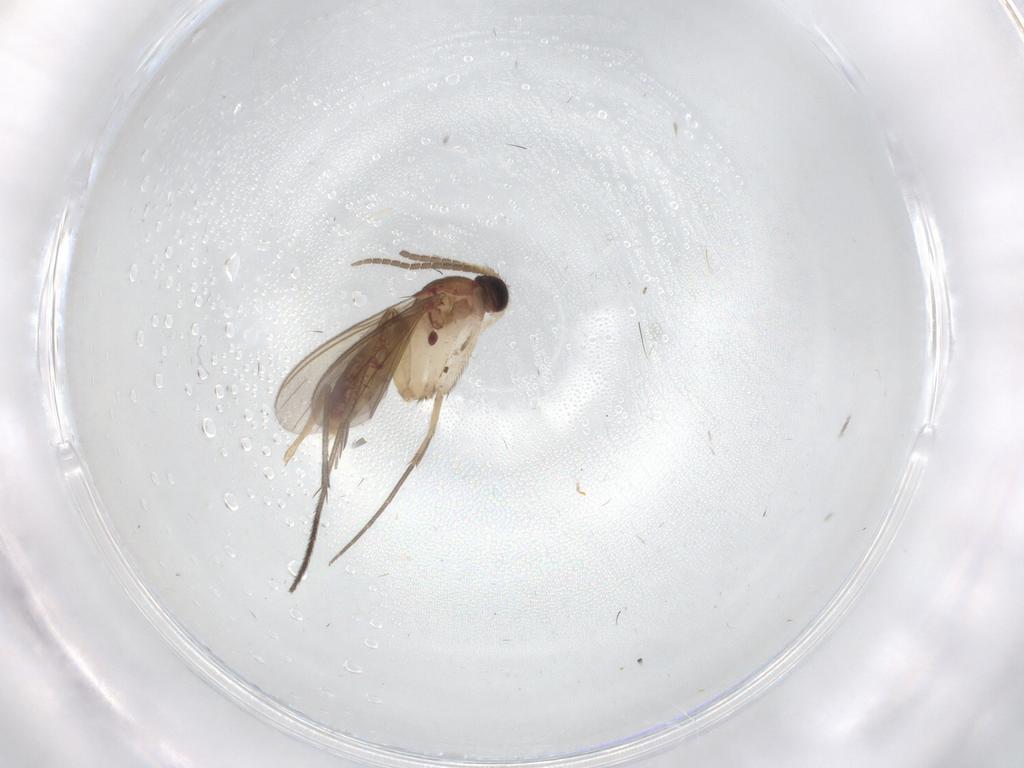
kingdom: Animalia
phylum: Arthropoda
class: Insecta
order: Diptera
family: Mycetophilidae
